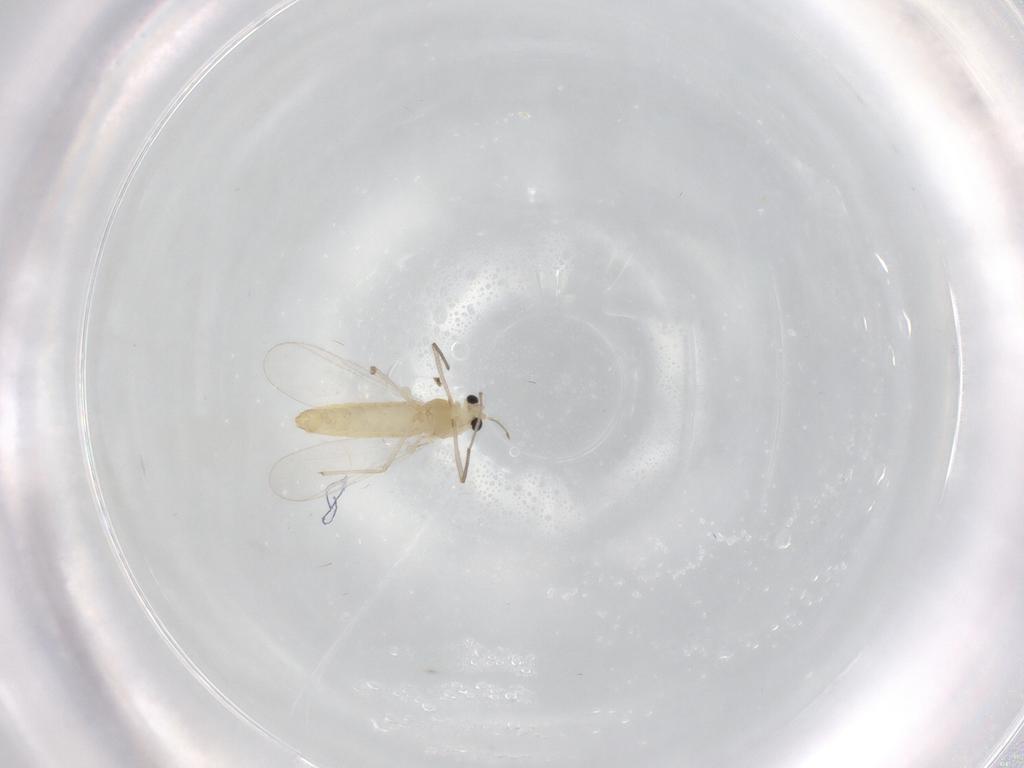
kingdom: Animalia
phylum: Arthropoda
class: Insecta
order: Diptera
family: Chironomidae
